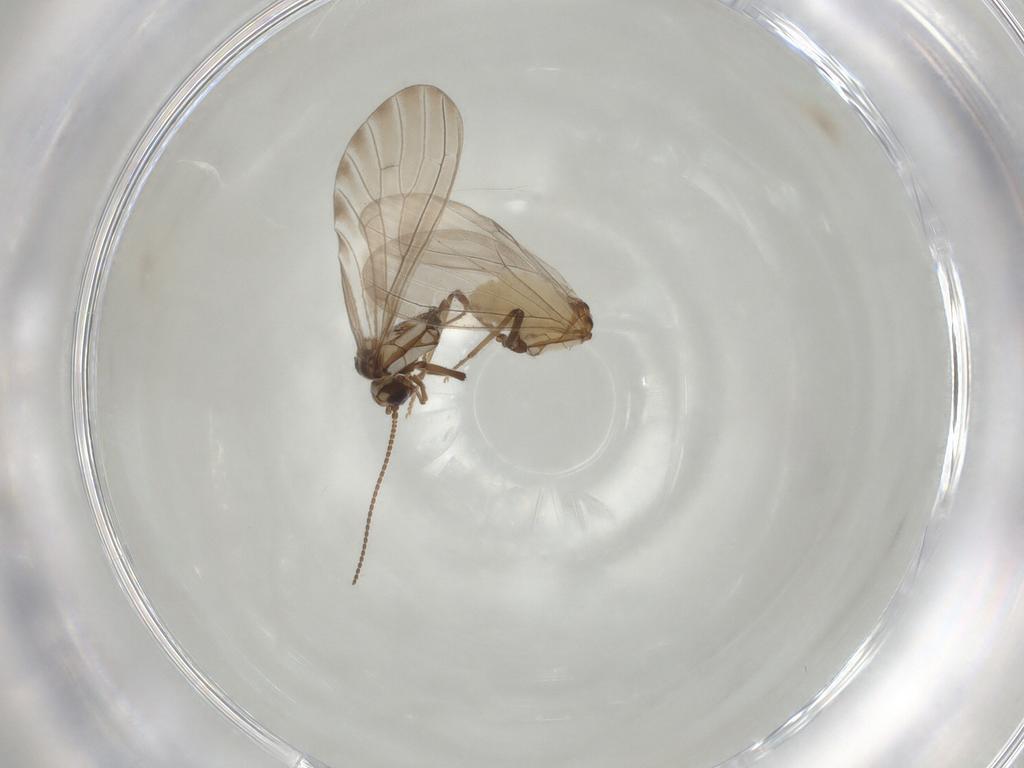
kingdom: Animalia
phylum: Arthropoda
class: Insecta
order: Neuroptera
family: Coniopterygidae
